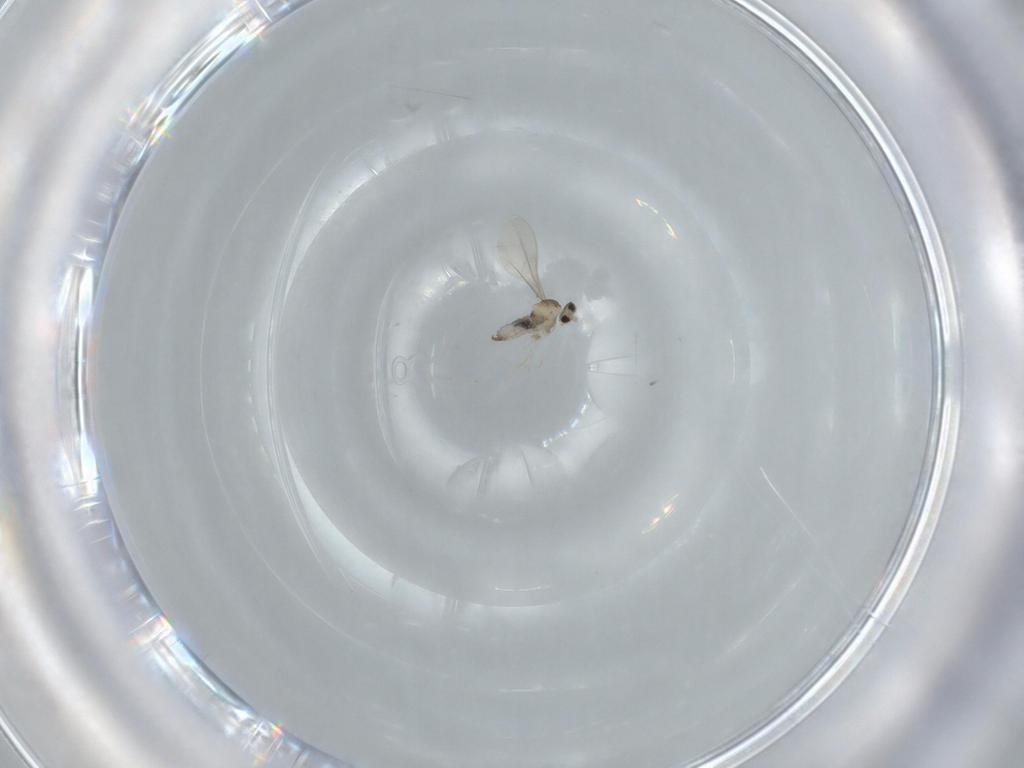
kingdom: Animalia
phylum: Arthropoda
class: Insecta
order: Diptera
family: Cecidomyiidae
